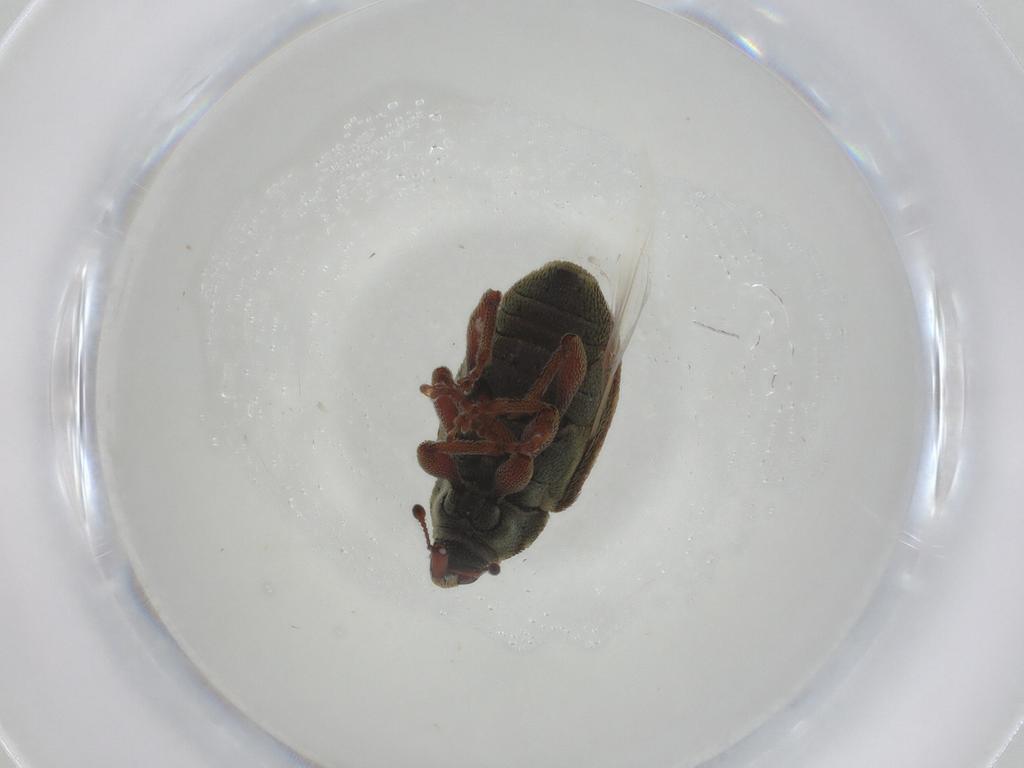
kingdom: Animalia
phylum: Arthropoda
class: Insecta
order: Coleoptera
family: Curculionidae
